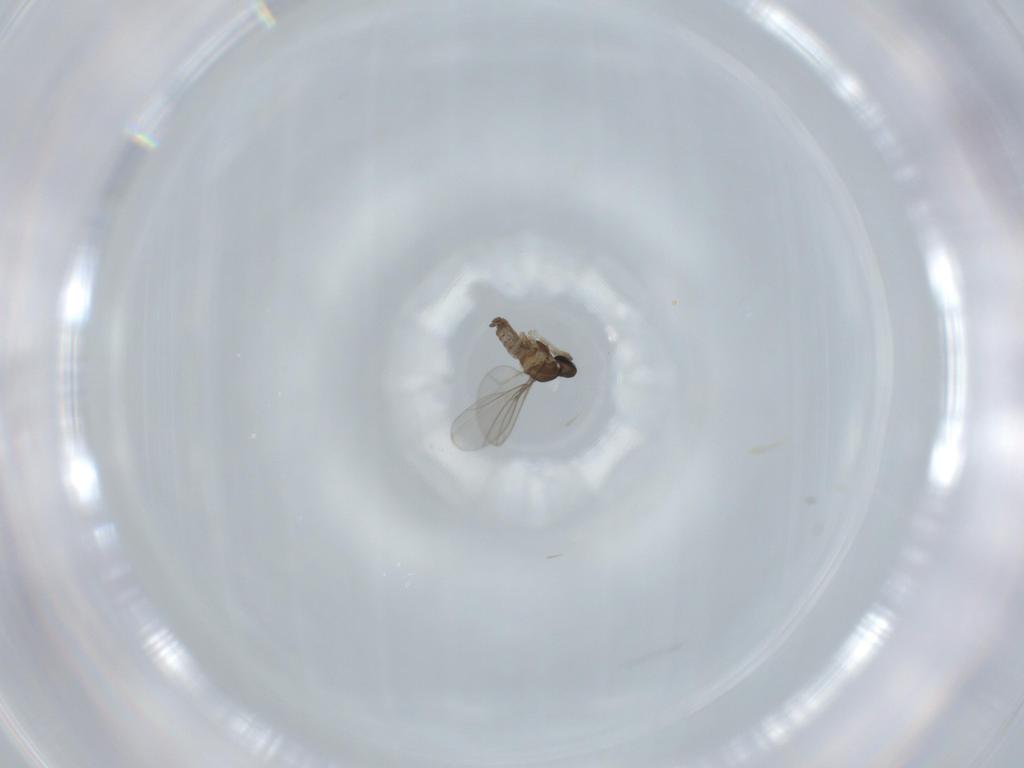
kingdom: Animalia
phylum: Arthropoda
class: Insecta
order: Diptera
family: Cecidomyiidae
